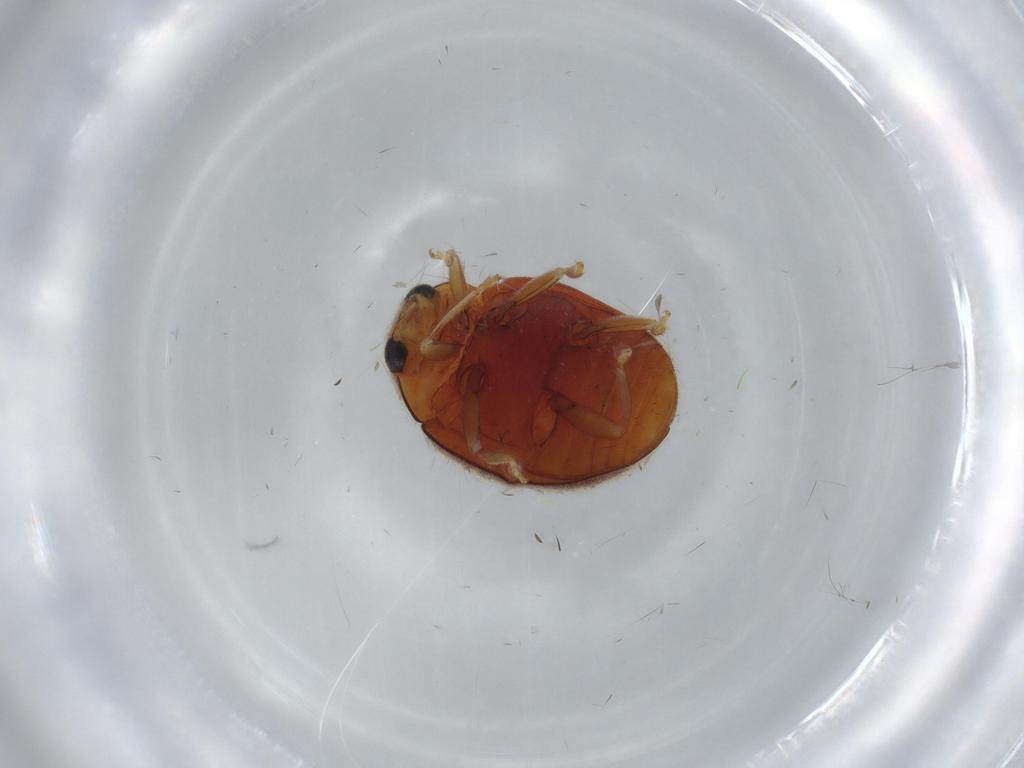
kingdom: Animalia
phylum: Arthropoda
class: Insecta
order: Coleoptera
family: Coccinellidae
